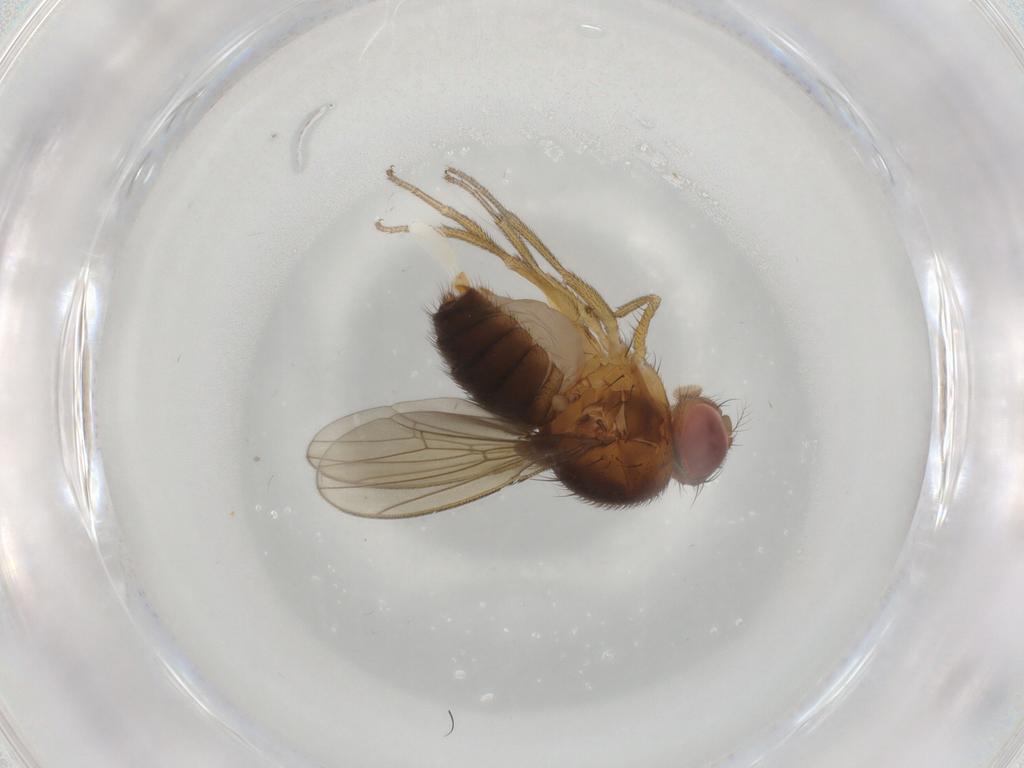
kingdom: Animalia
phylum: Arthropoda
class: Insecta
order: Diptera
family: Drosophilidae
